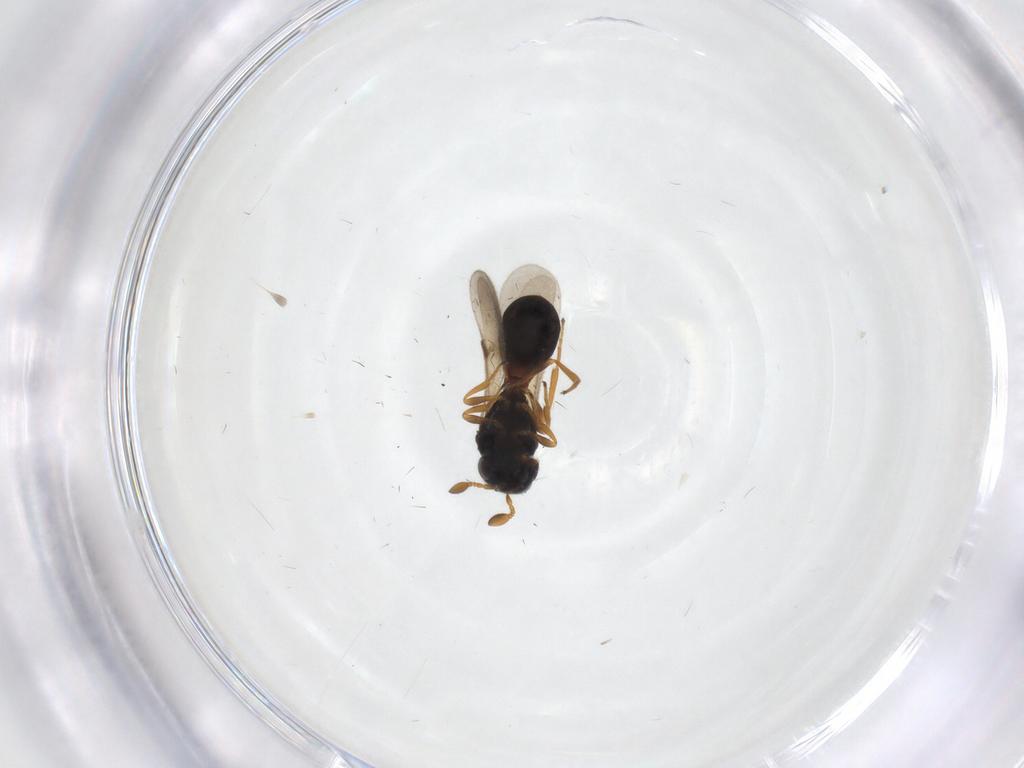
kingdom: Animalia
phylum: Arthropoda
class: Insecta
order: Hymenoptera
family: Scelionidae
